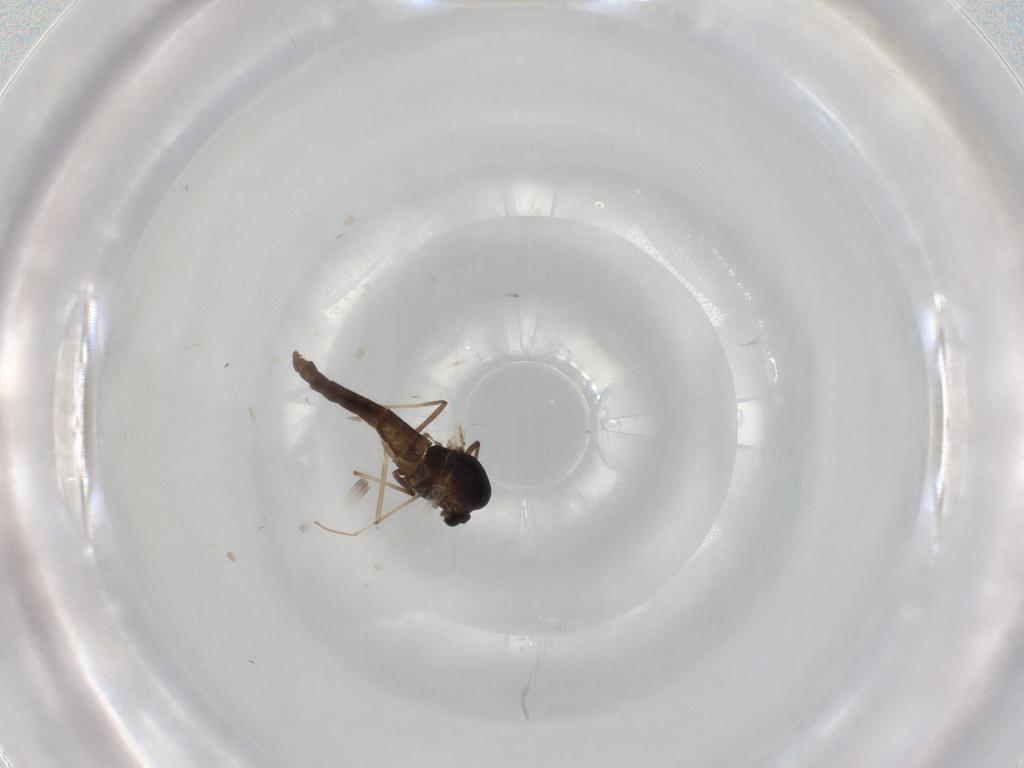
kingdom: Animalia
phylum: Arthropoda
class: Insecta
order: Diptera
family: Chironomidae
